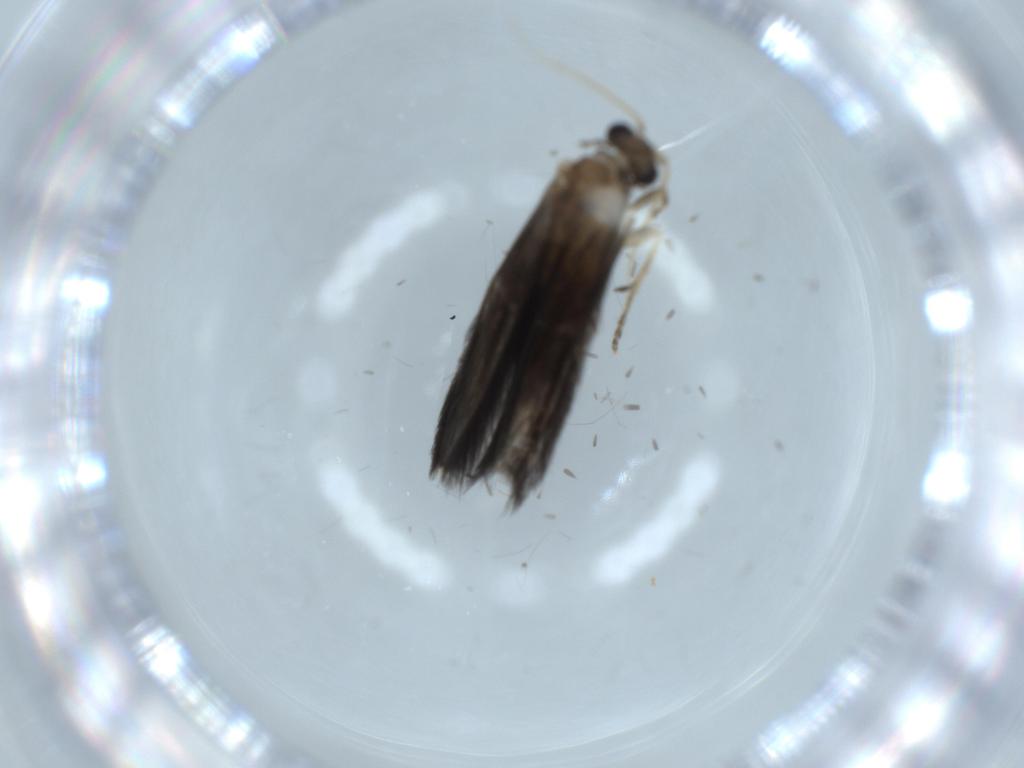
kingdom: Animalia
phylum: Arthropoda
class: Insecta
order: Trichoptera
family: Hydroptilidae
